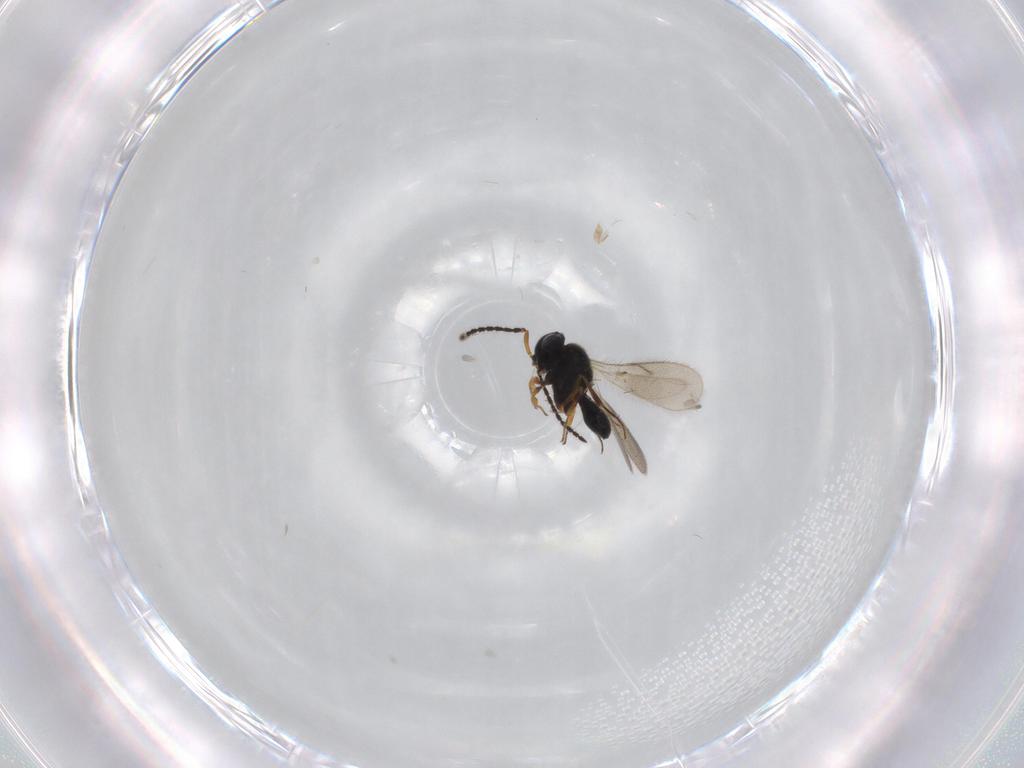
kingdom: Animalia
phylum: Arthropoda
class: Insecta
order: Hymenoptera
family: Scelionidae
